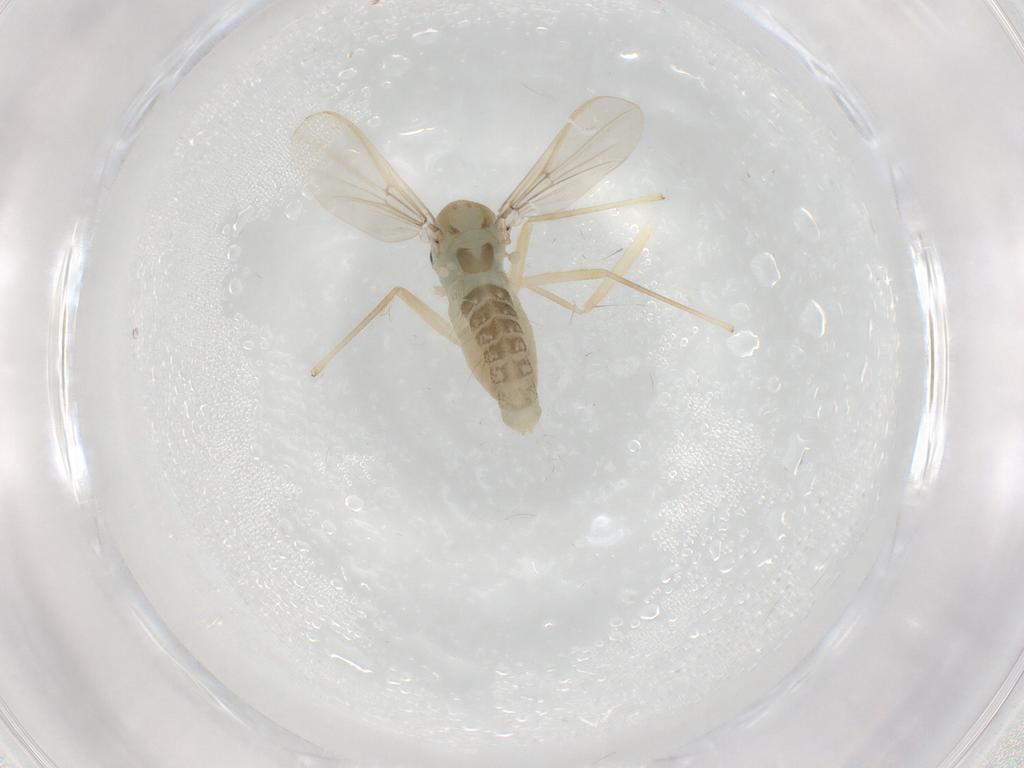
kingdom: Animalia
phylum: Arthropoda
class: Insecta
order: Diptera
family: Chironomidae
